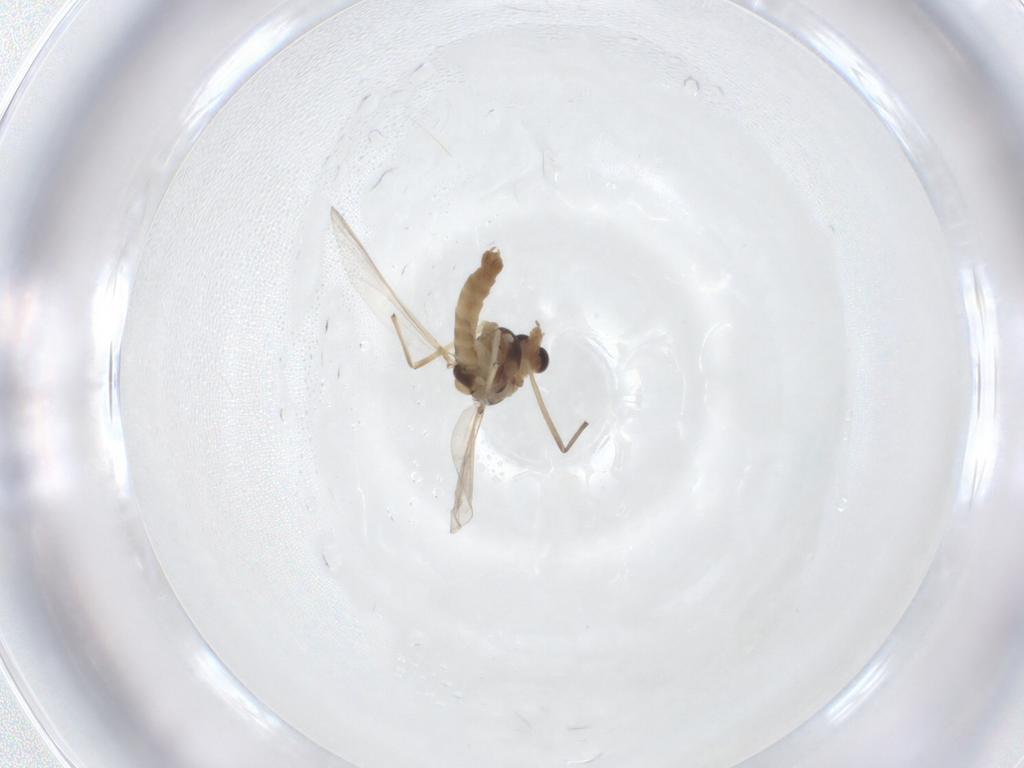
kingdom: Animalia
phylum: Arthropoda
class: Insecta
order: Diptera
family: Chironomidae
